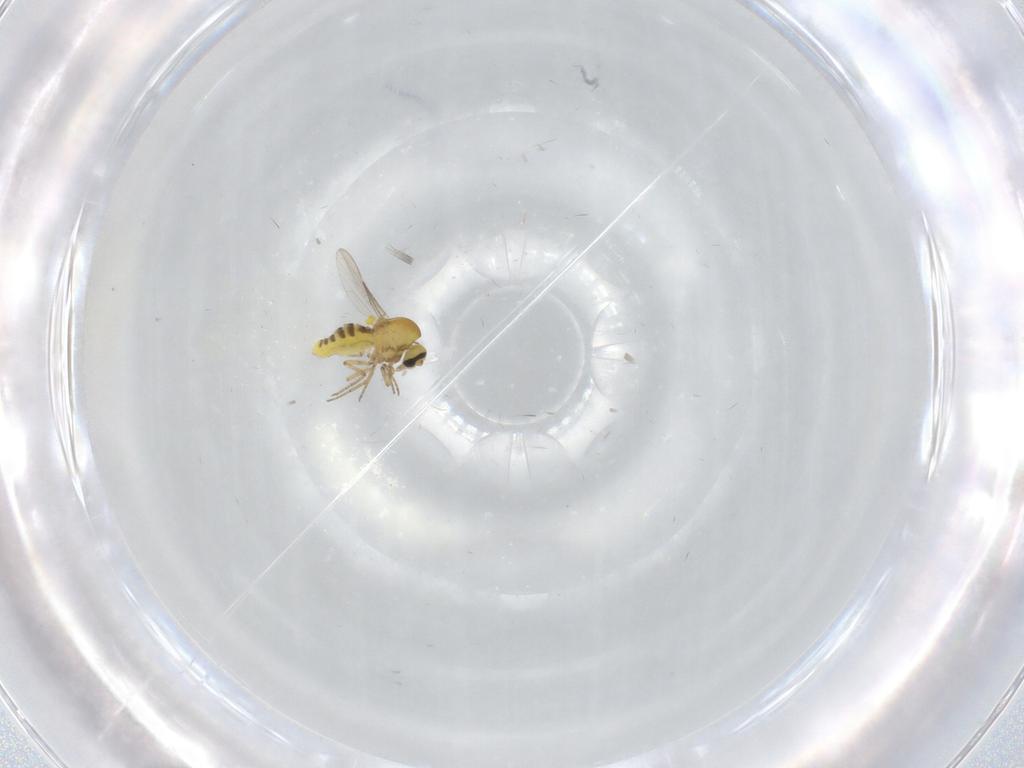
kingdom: Animalia
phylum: Arthropoda
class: Insecta
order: Diptera
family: Ceratopogonidae
